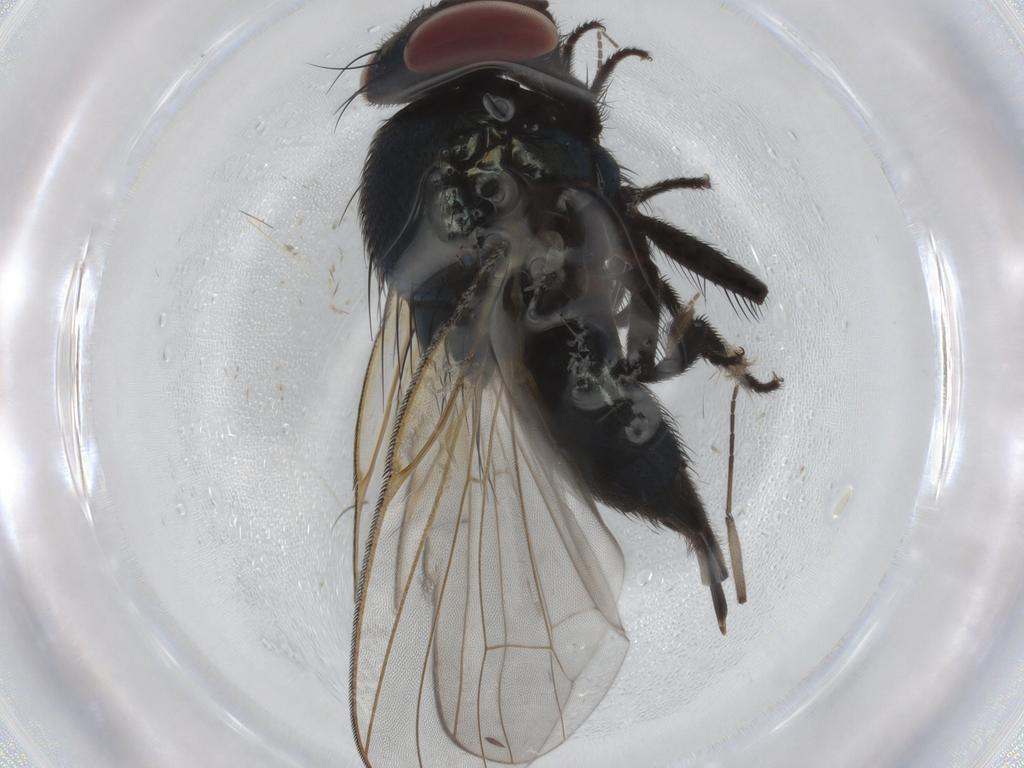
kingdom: Animalia
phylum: Arthropoda
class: Insecta
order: Diptera
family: Lonchaeidae
